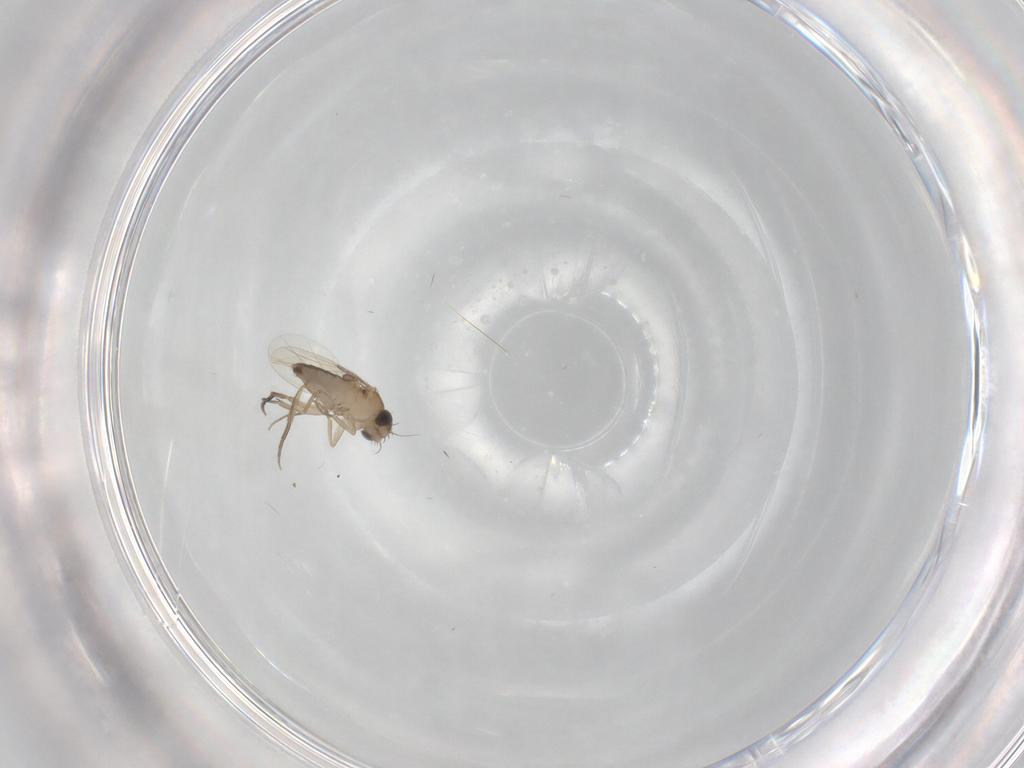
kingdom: Animalia
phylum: Arthropoda
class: Insecta
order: Diptera
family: Phoridae
